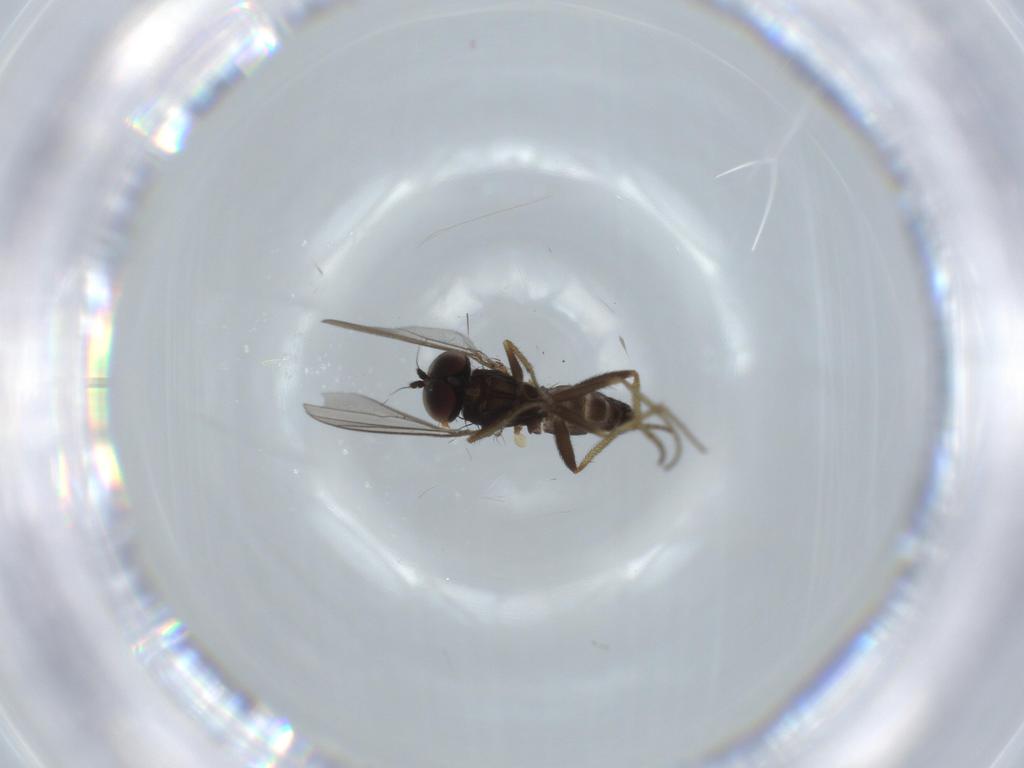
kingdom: Animalia
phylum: Arthropoda
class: Insecta
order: Diptera
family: Dolichopodidae
